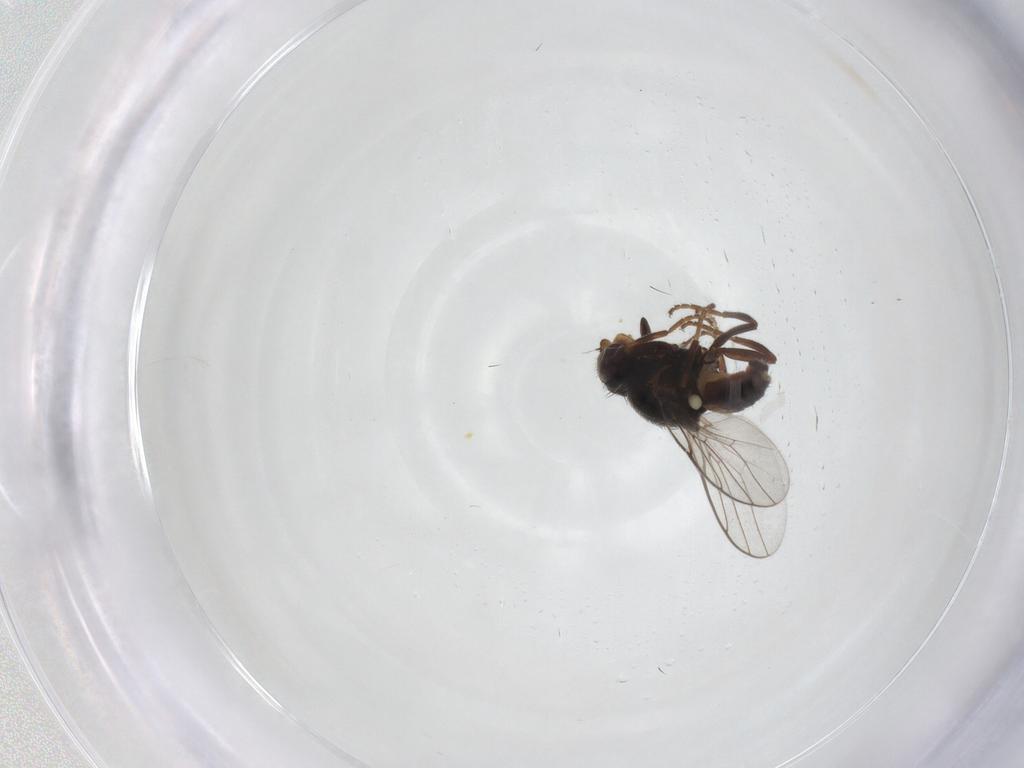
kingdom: Animalia
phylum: Arthropoda
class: Insecta
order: Diptera
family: Chloropidae
